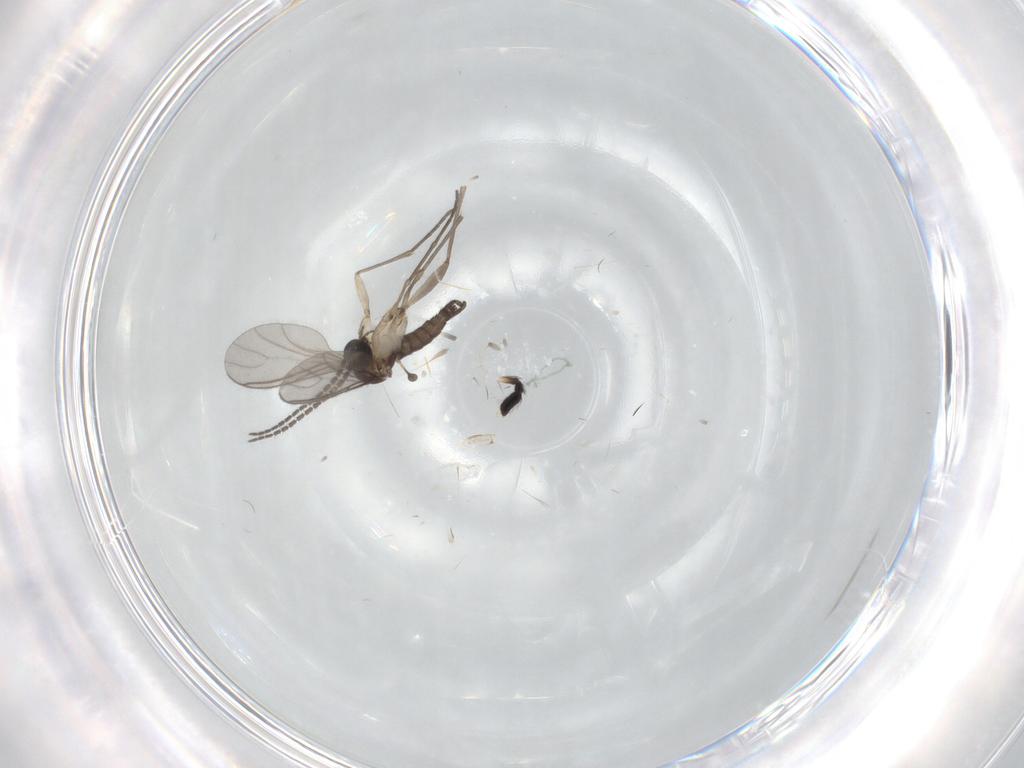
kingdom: Animalia
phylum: Arthropoda
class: Insecta
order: Diptera
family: Sciaridae
